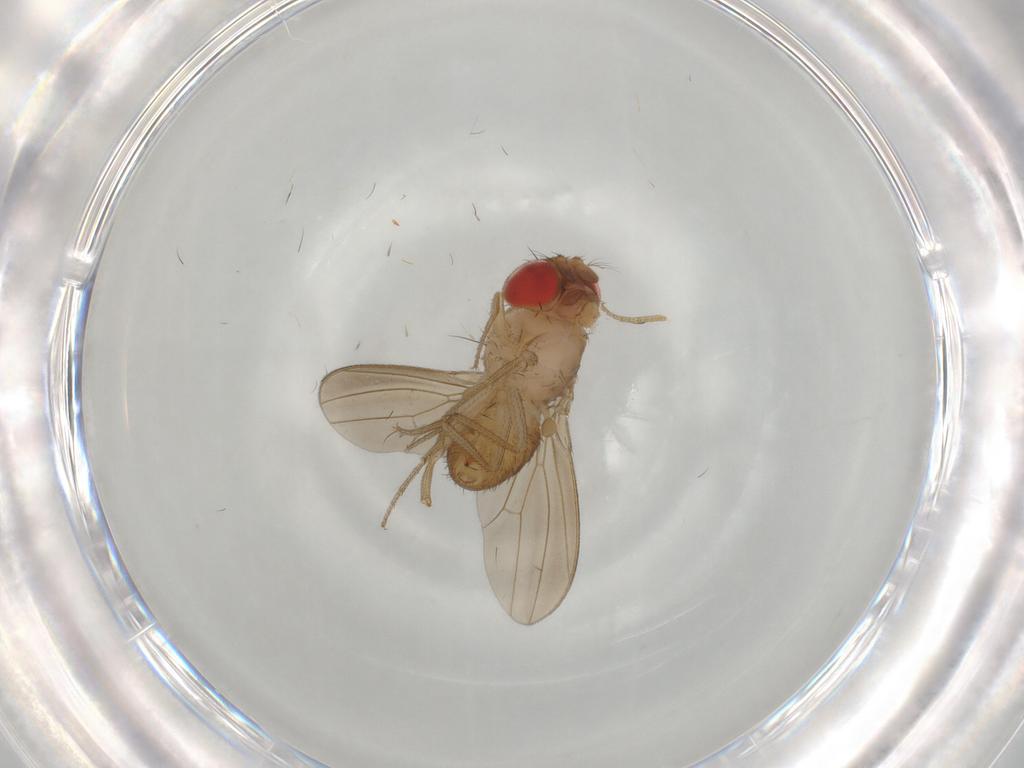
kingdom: Animalia
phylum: Arthropoda
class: Insecta
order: Diptera
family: Drosophilidae
